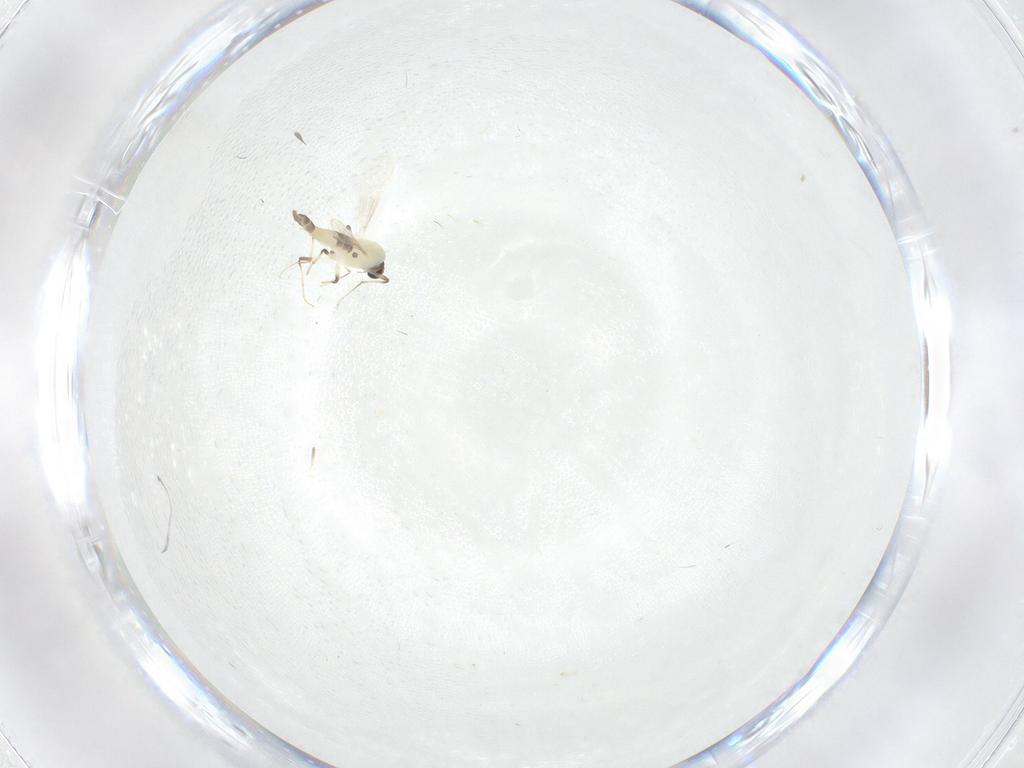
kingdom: Animalia
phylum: Arthropoda
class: Insecta
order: Diptera
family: Chironomidae
